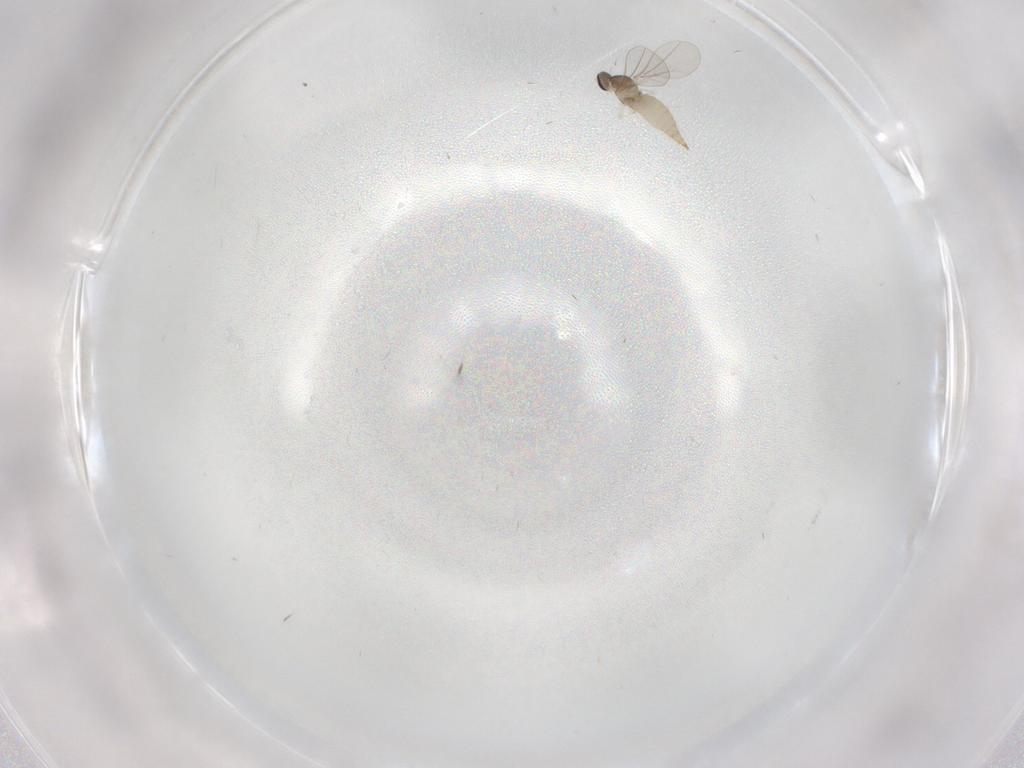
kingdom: Animalia
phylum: Arthropoda
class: Insecta
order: Diptera
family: Cecidomyiidae
